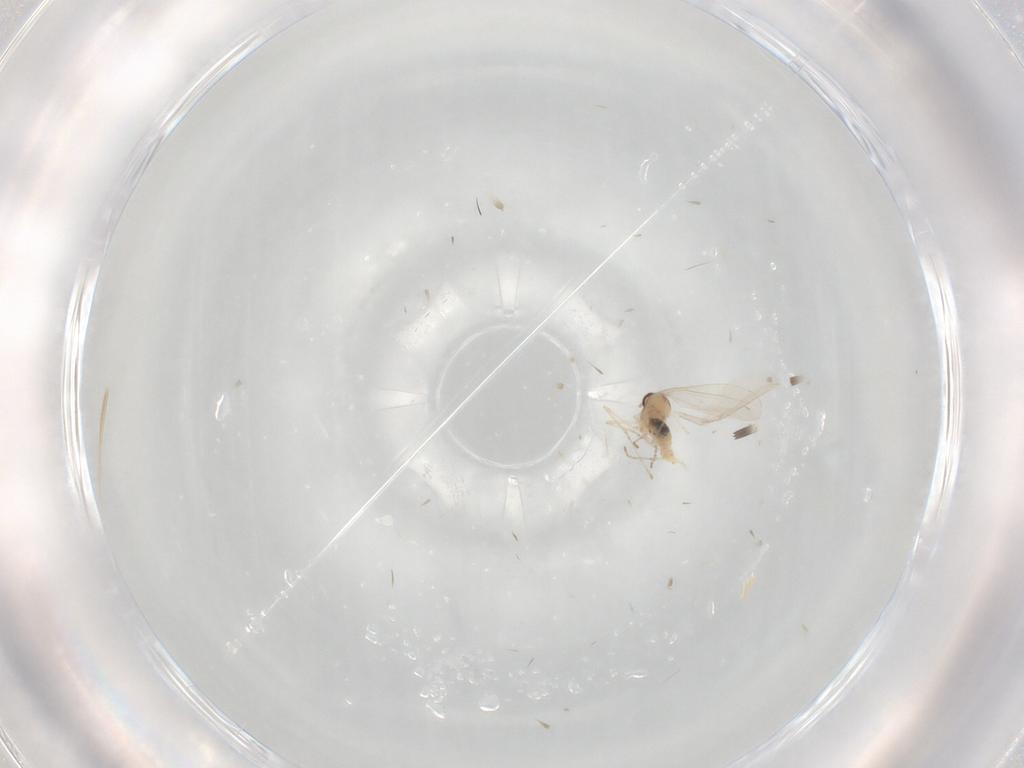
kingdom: Animalia
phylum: Arthropoda
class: Insecta
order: Diptera
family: Cecidomyiidae
